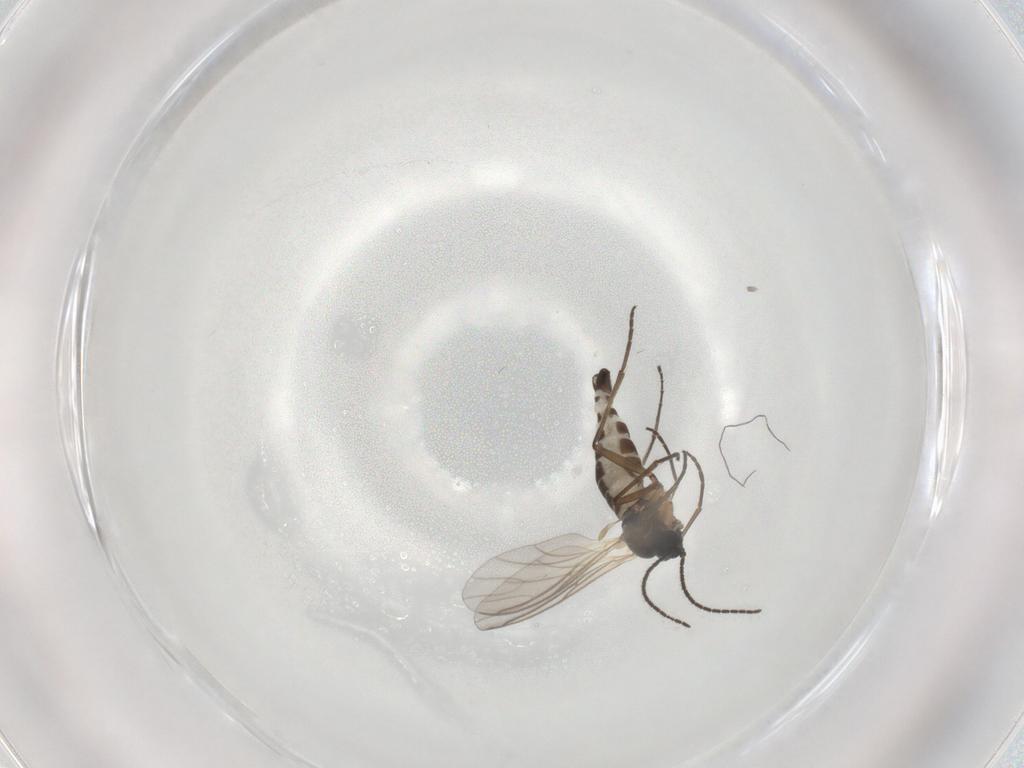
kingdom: Animalia
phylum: Arthropoda
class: Insecta
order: Diptera
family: Sciaridae
